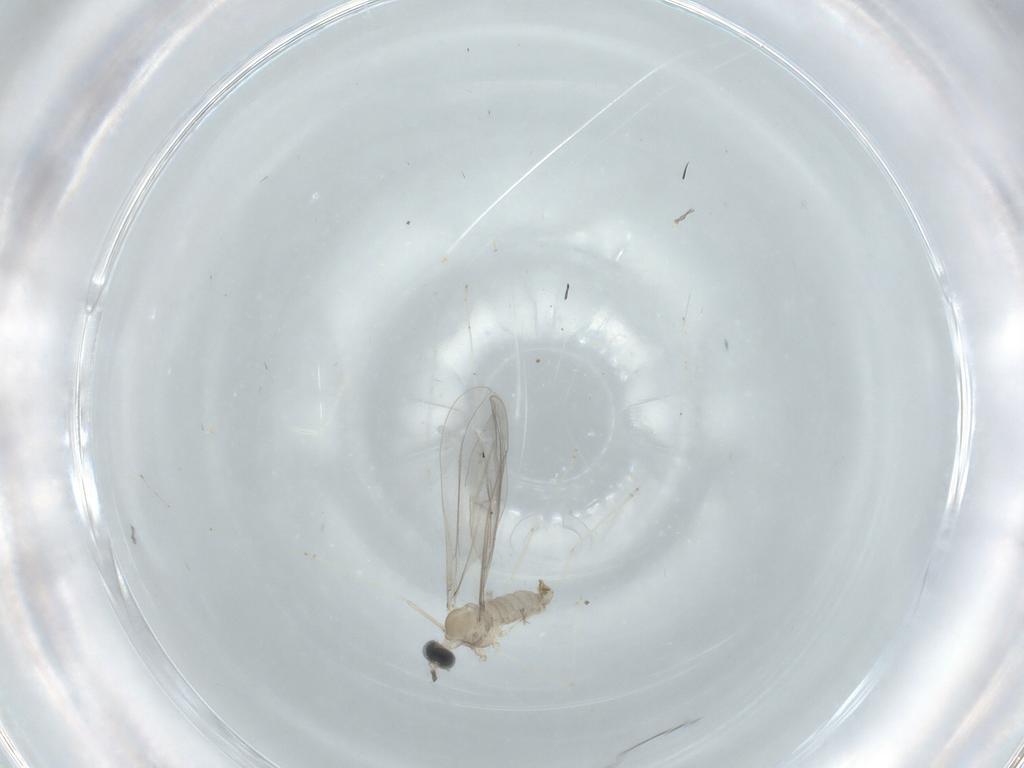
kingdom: Animalia
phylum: Arthropoda
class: Insecta
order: Diptera
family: Cecidomyiidae
